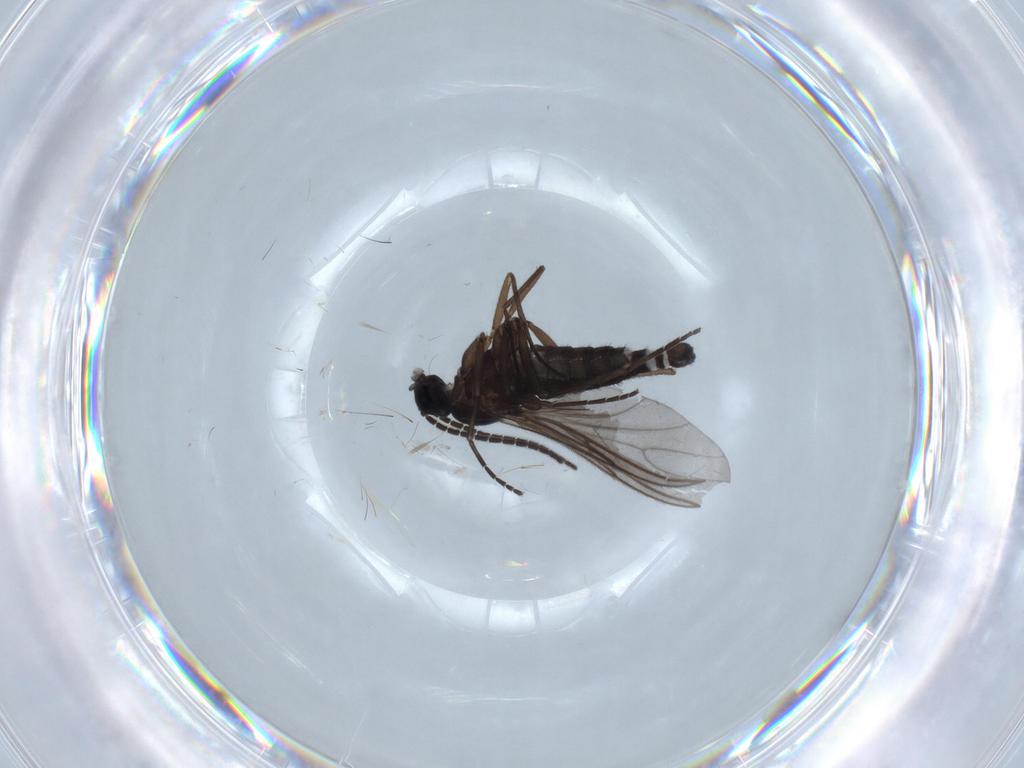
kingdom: Animalia
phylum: Arthropoda
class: Insecta
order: Diptera
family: Sciaridae
